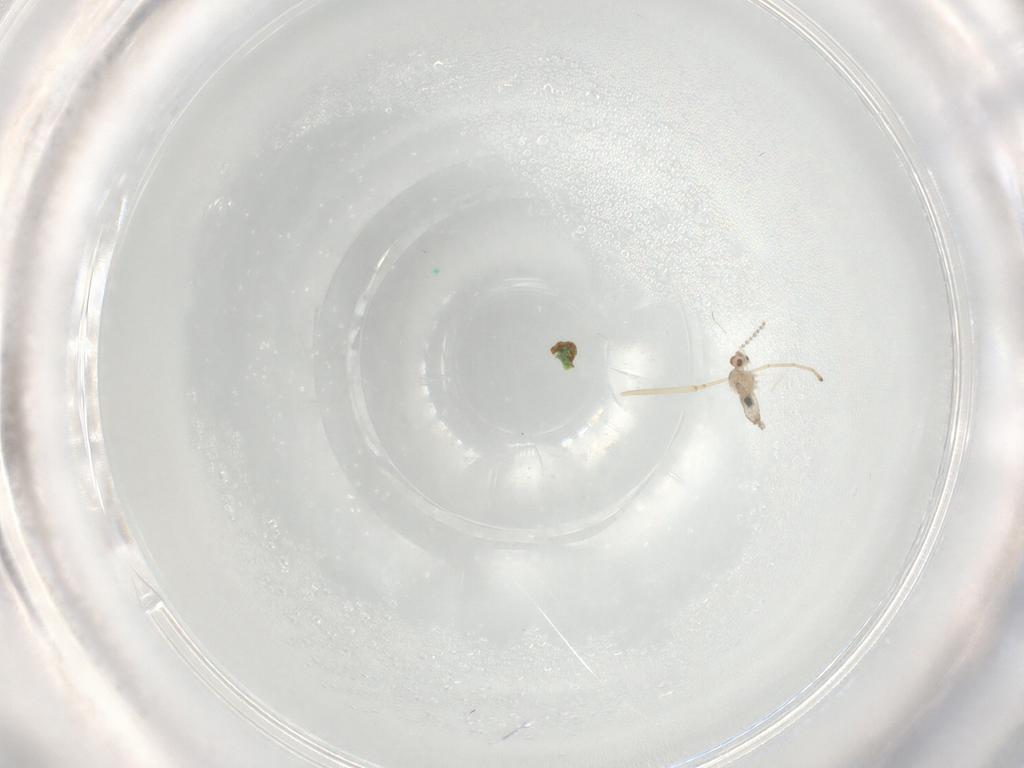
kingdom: Animalia
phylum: Arthropoda
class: Insecta
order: Diptera
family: Cecidomyiidae
